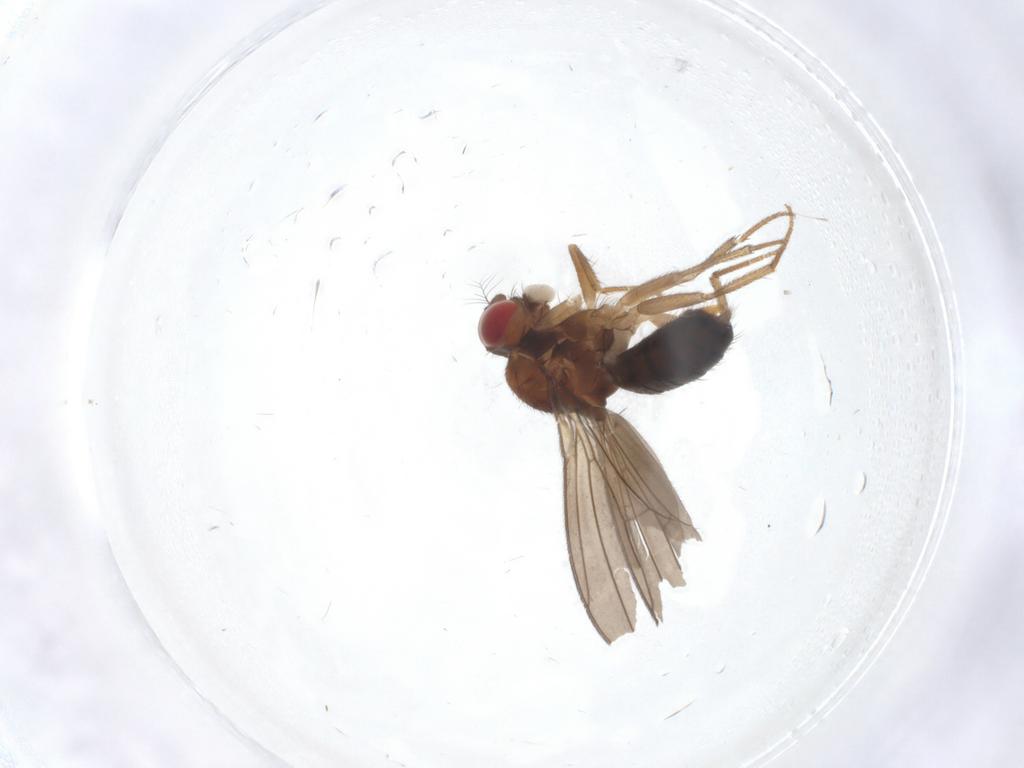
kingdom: Animalia
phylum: Arthropoda
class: Insecta
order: Diptera
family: Drosophilidae
